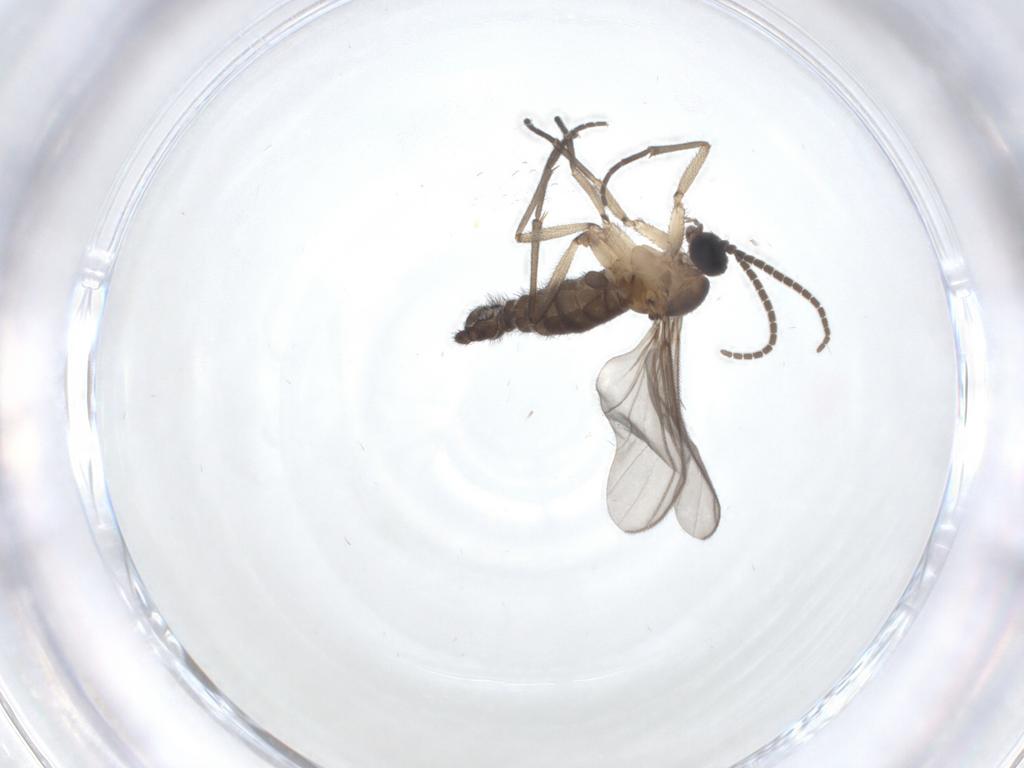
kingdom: Animalia
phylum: Arthropoda
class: Insecta
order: Diptera
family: Sciaridae
